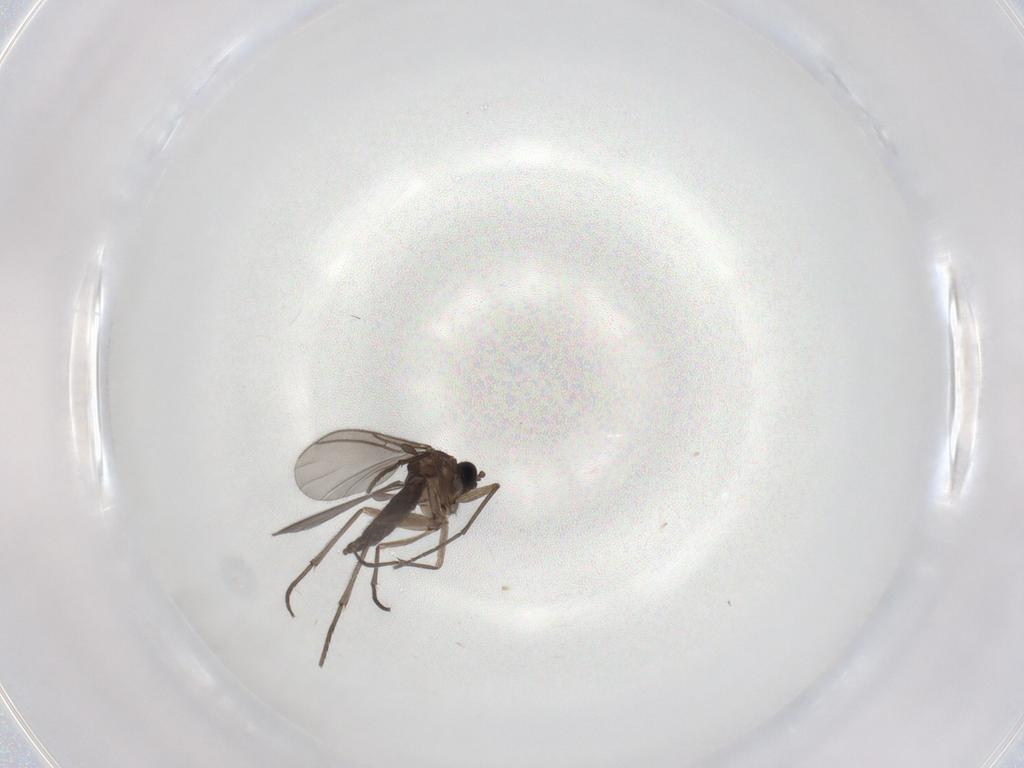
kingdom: Animalia
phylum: Arthropoda
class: Insecta
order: Diptera
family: Sciaridae
